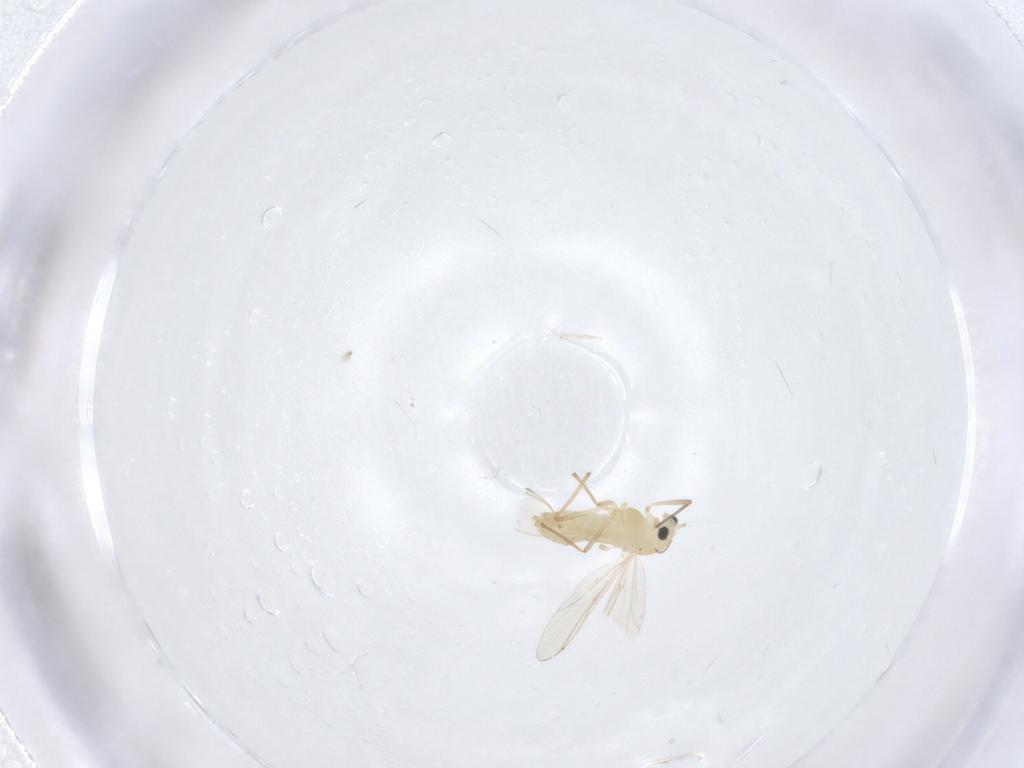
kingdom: Animalia
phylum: Arthropoda
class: Insecta
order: Diptera
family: Chironomidae
